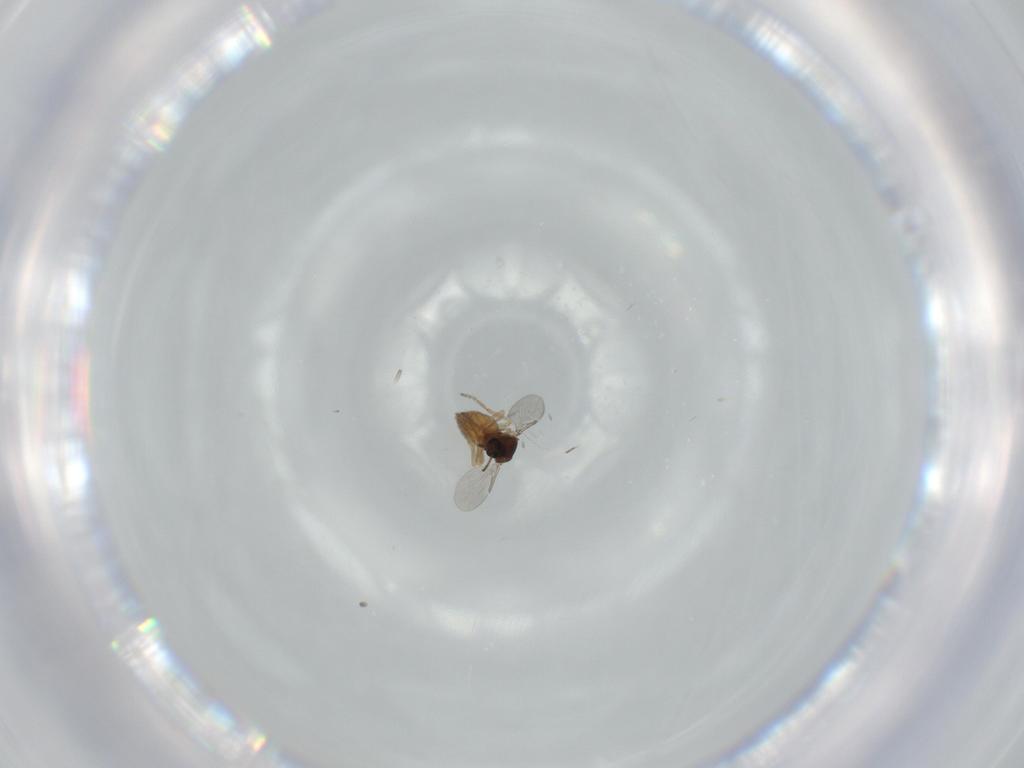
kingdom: Animalia
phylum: Arthropoda
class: Insecta
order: Diptera
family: Ceratopogonidae
